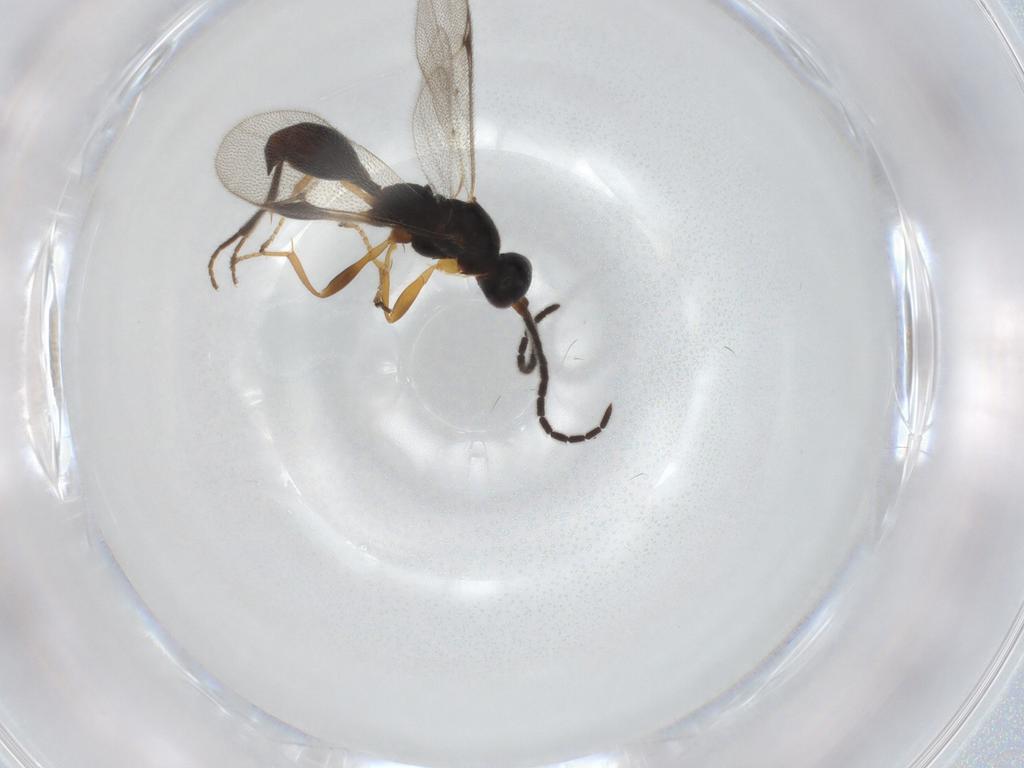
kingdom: Animalia
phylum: Arthropoda
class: Insecta
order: Hymenoptera
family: Proctotrupidae
